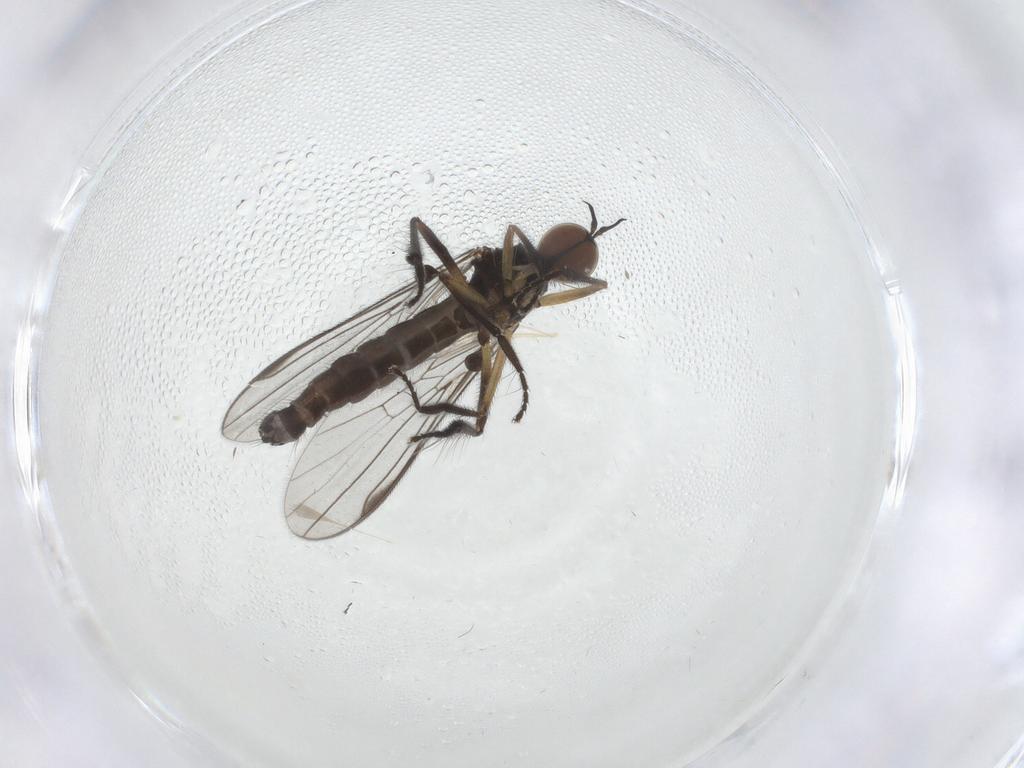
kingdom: Animalia
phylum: Arthropoda
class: Insecta
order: Diptera
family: Empididae
